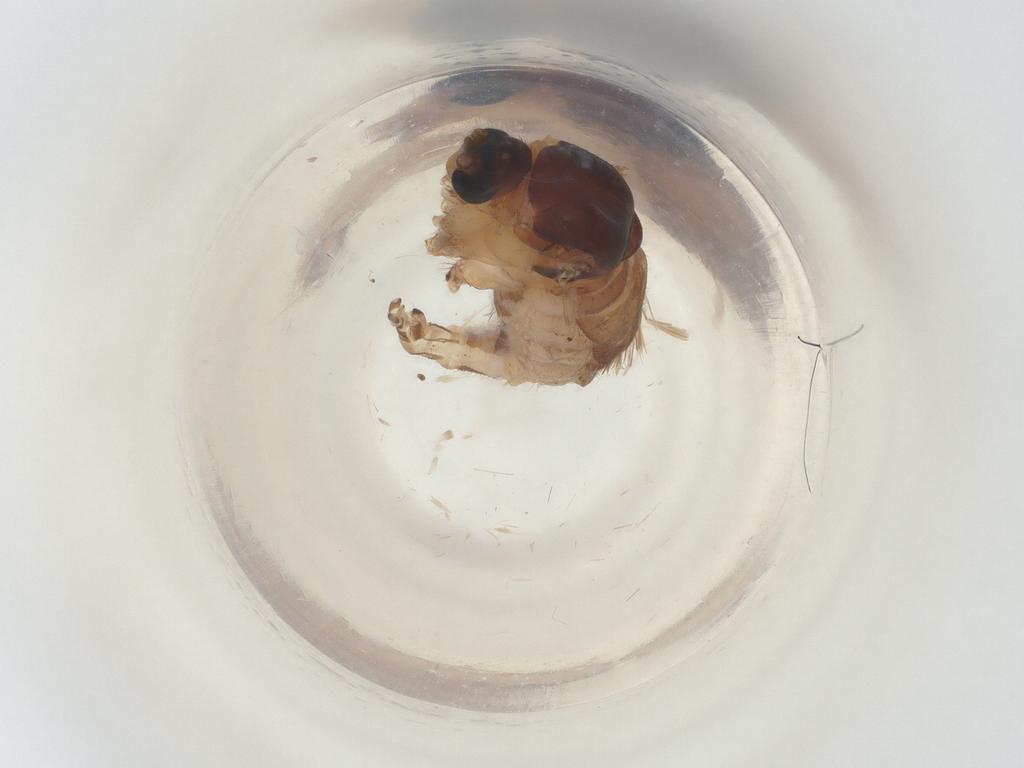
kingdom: Animalia
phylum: Arthropoda
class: Insecta
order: Diptera
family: Sciaridae
